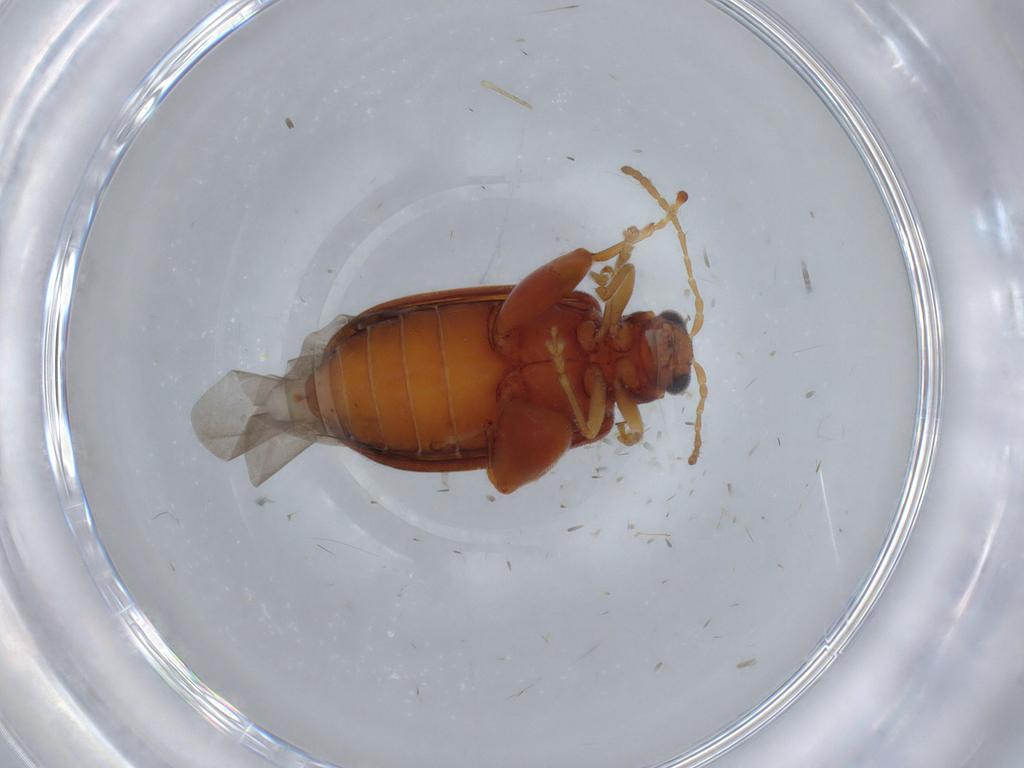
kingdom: Animalia
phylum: Arthropoda
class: Insecta
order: Coleoptera
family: Chrysomelidae
